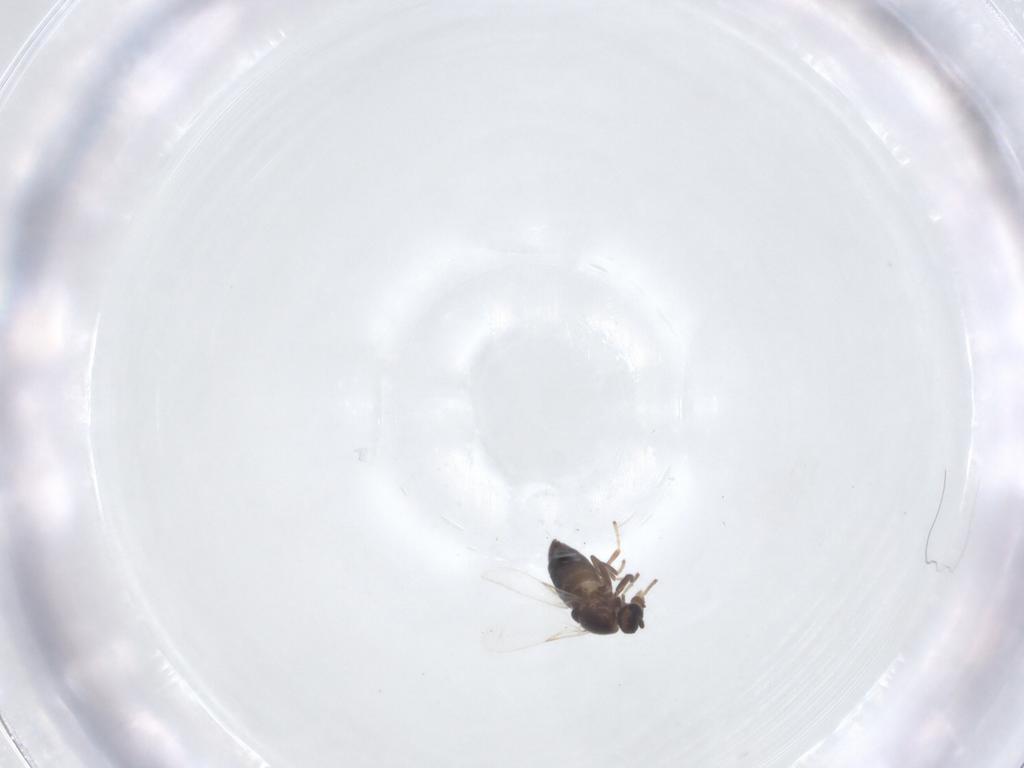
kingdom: Animalia
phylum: Arthropoda
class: Insecta
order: Diptera
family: Scatopsidae
